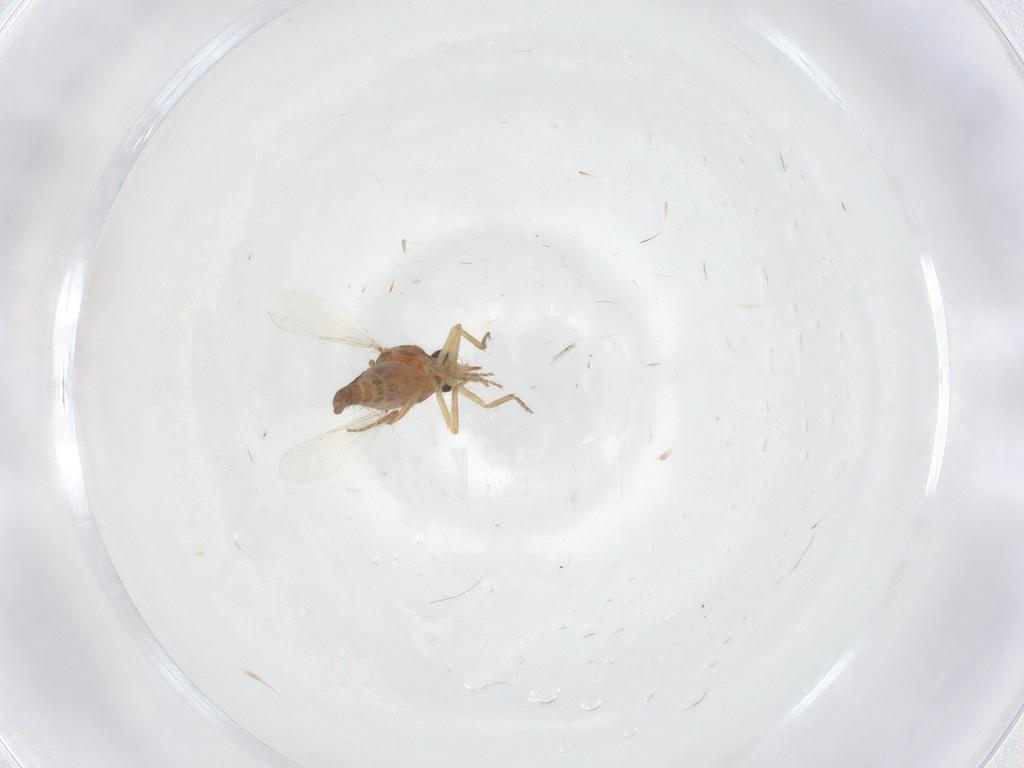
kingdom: Animalia
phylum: Arthropoda
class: Insecta
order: Diptera
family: Ceratopogonidae
